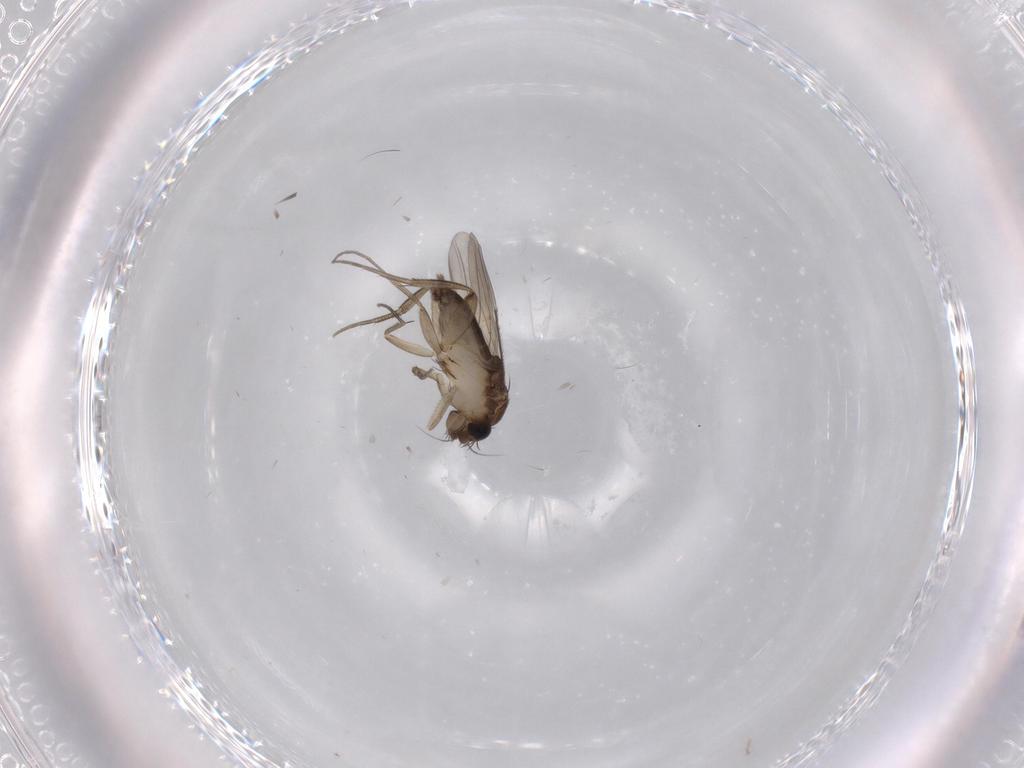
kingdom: Animalia
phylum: Arthropoda
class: Insecta
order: Diptera
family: Phoridae
